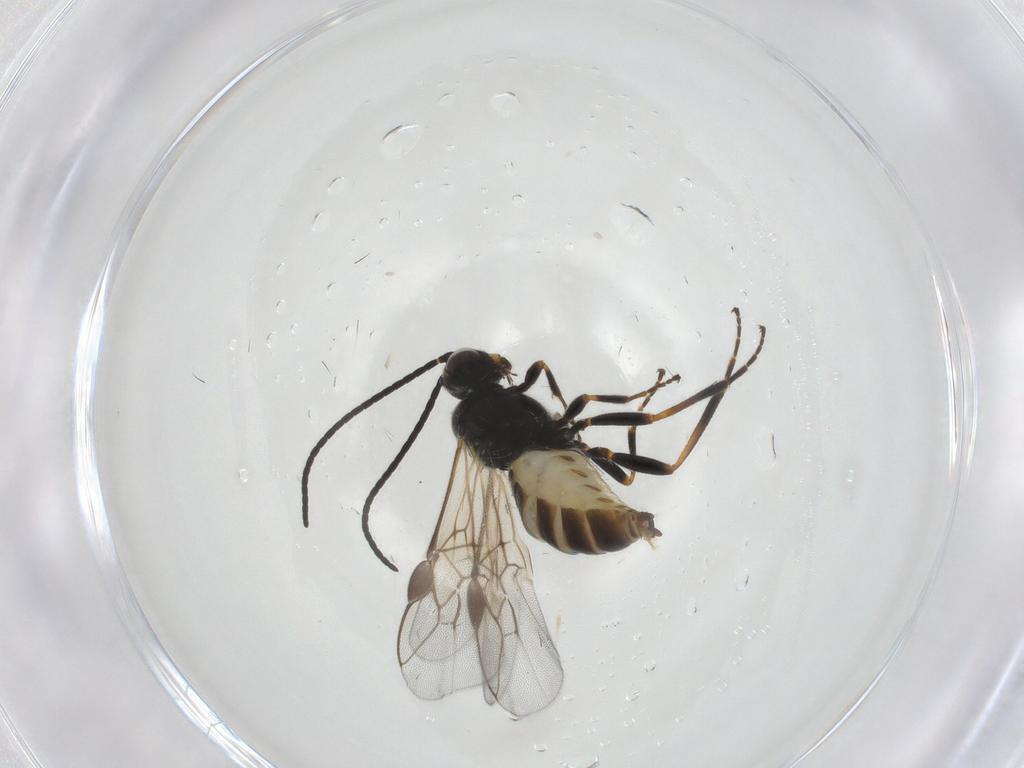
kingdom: Animalia
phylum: Arthropoda
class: Insecta
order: Hymenoptera
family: Braconidae
